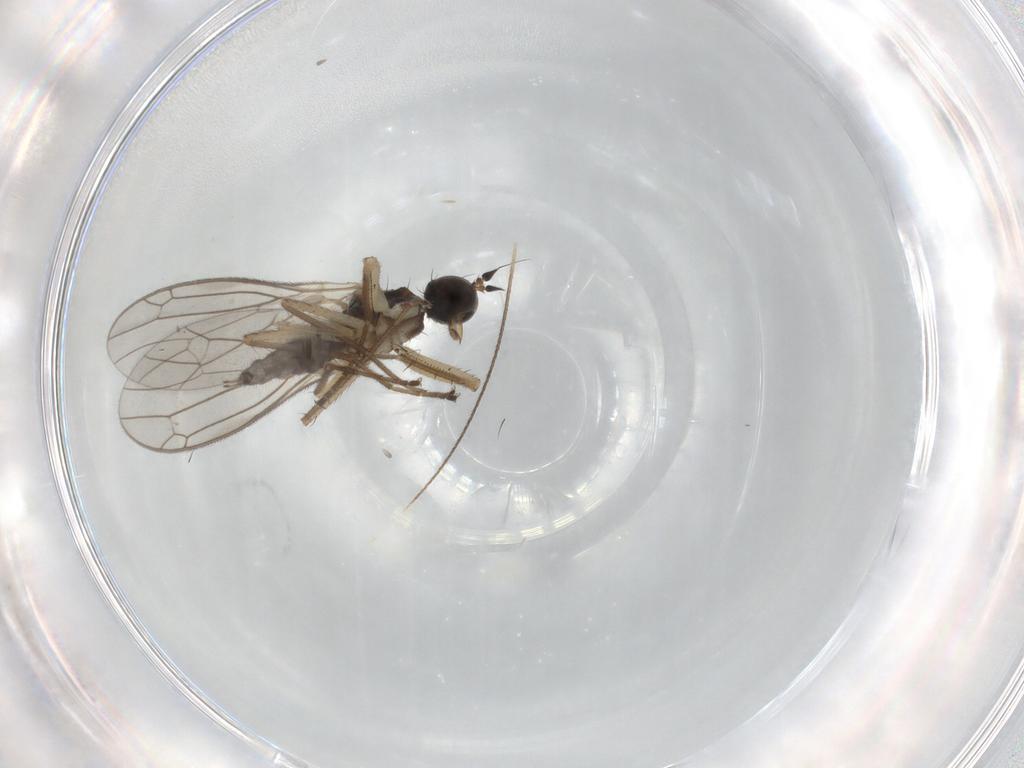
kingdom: Animalia
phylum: Arthropoda
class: Insecta
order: Diptera
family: Empididae
